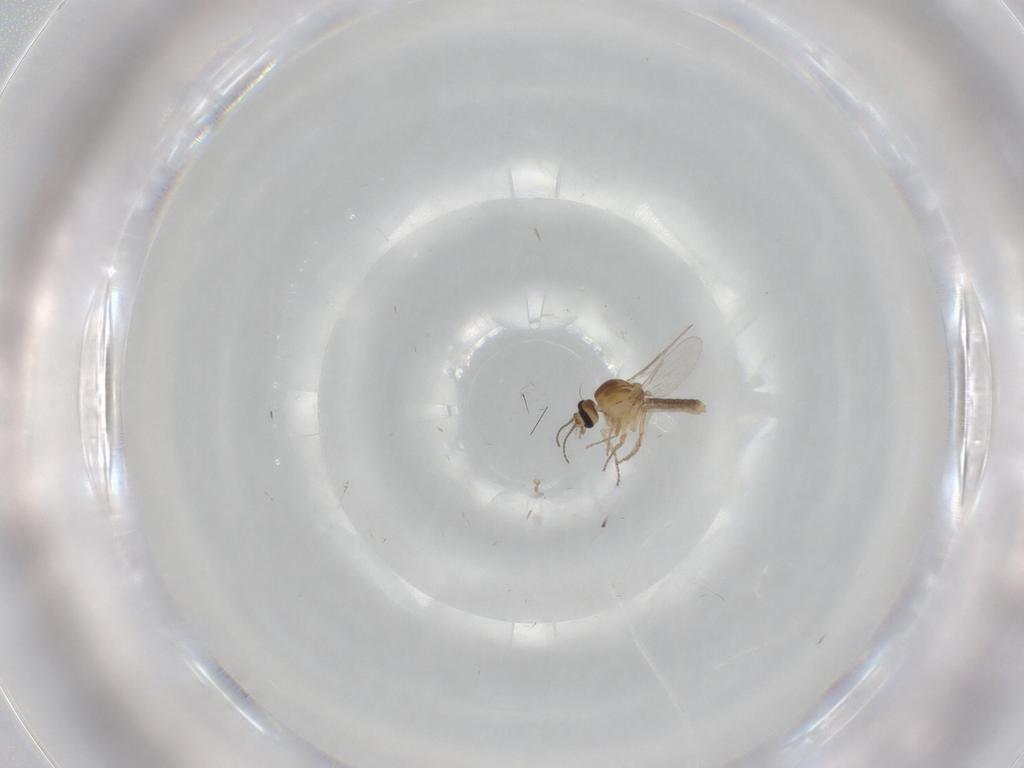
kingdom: Animalia
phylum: Arthropoda
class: Insecta
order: Diptera
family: Ceratopogonidae
